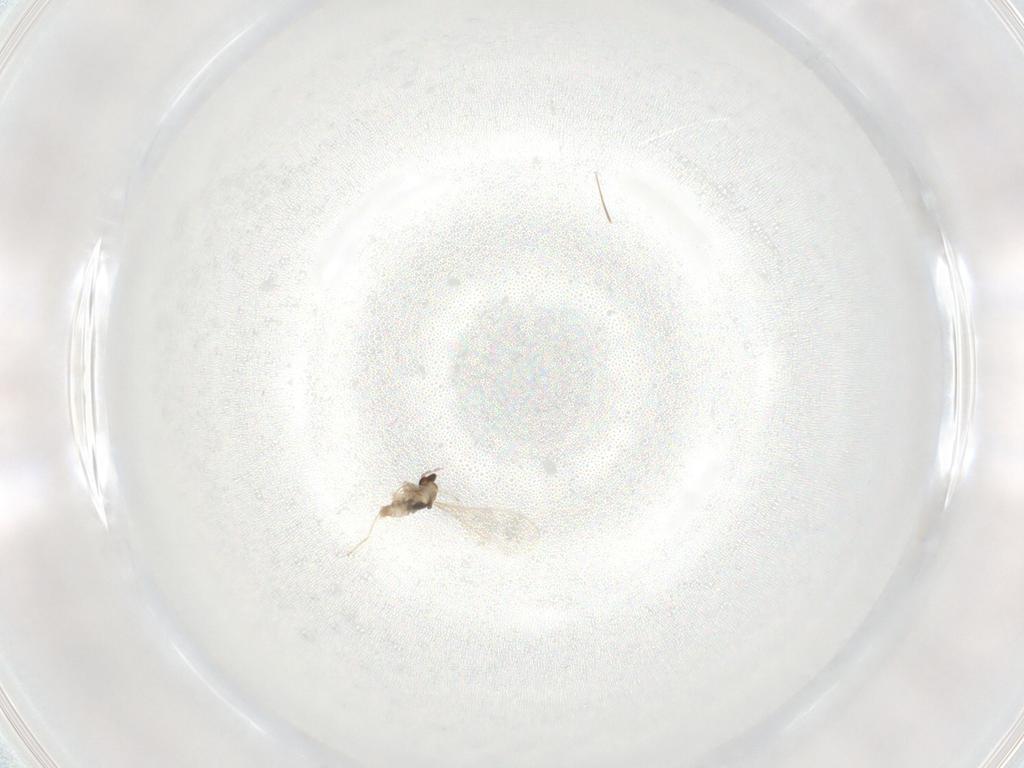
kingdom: Animalia
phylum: Arthropoda
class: Insecta
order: Diptera
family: Cecidomyiidae
